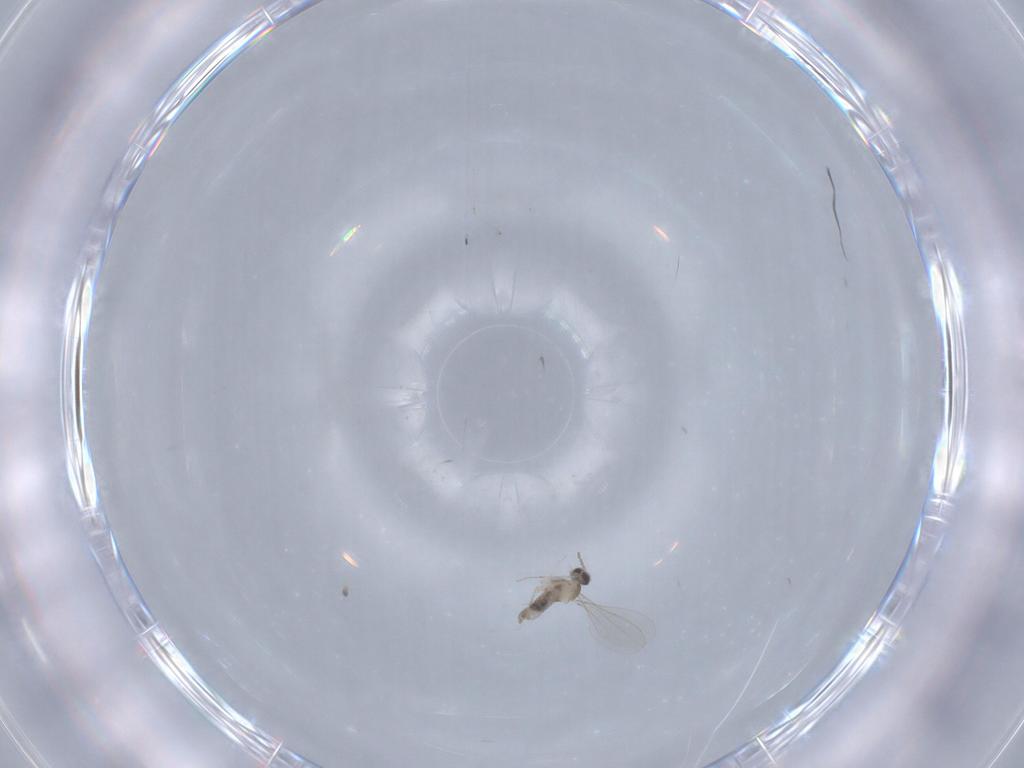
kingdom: Animalia
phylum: Arthropoda
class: Insecta
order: Diptera
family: Cecidomyiidae
